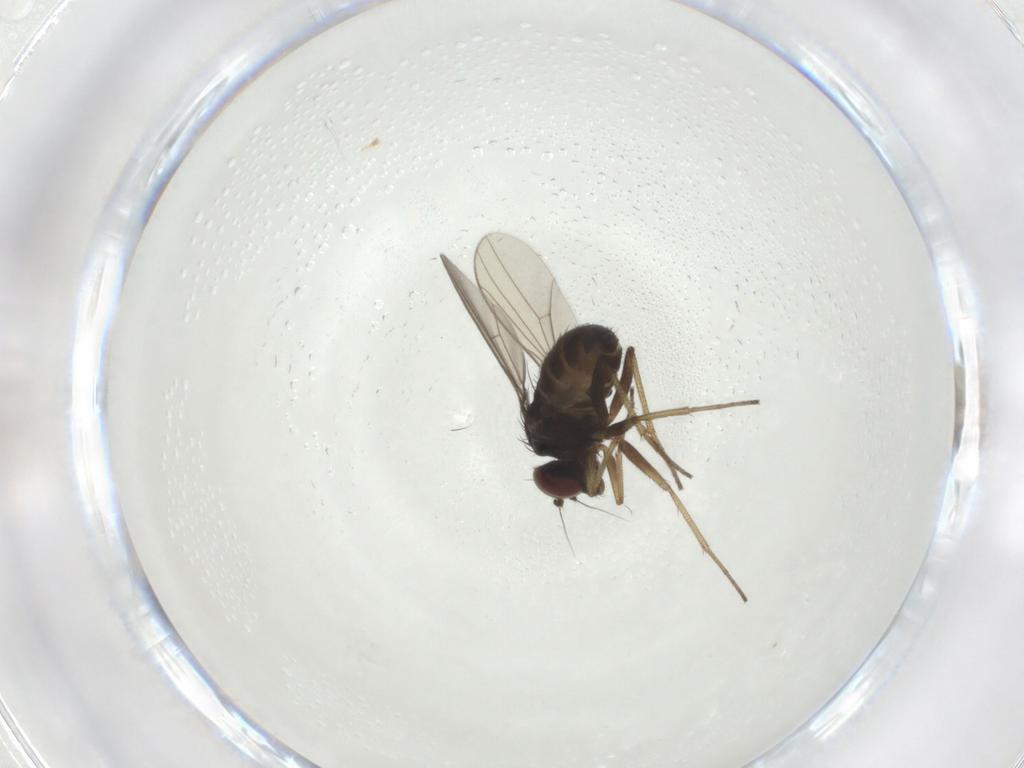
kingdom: Animalia
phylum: Arthropoda
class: Insecta
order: Diptera
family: Dolichopodidae
